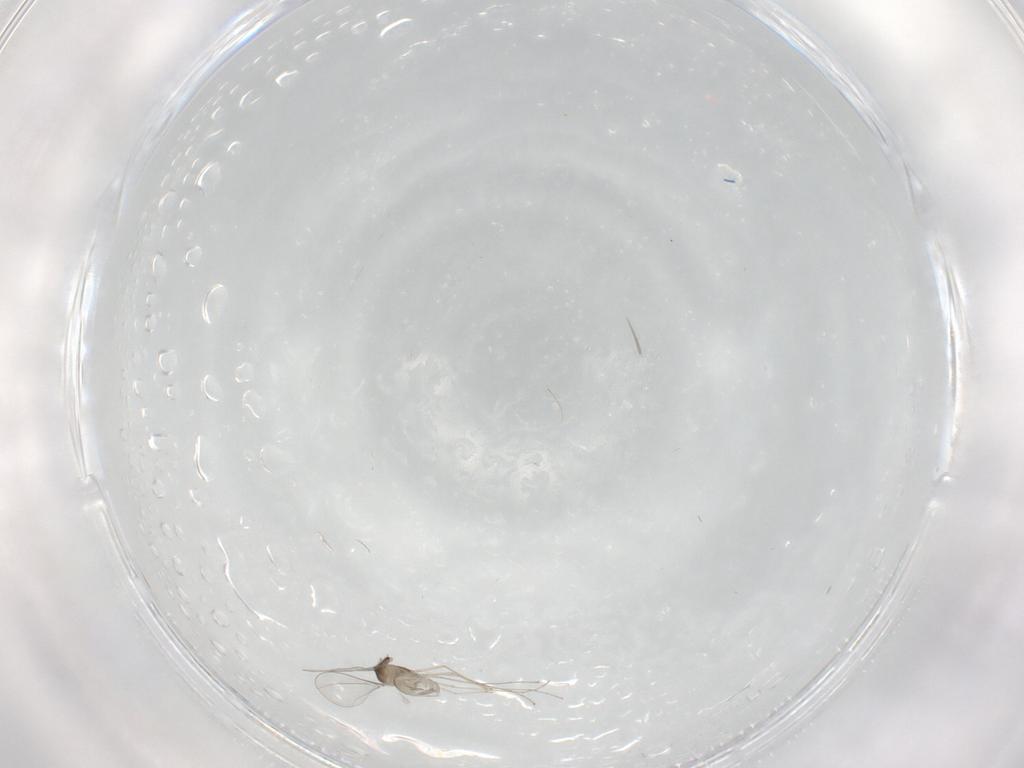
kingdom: Animalia
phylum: Arthropoda
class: Insecta
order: Diptera
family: Cecidomyiidae
